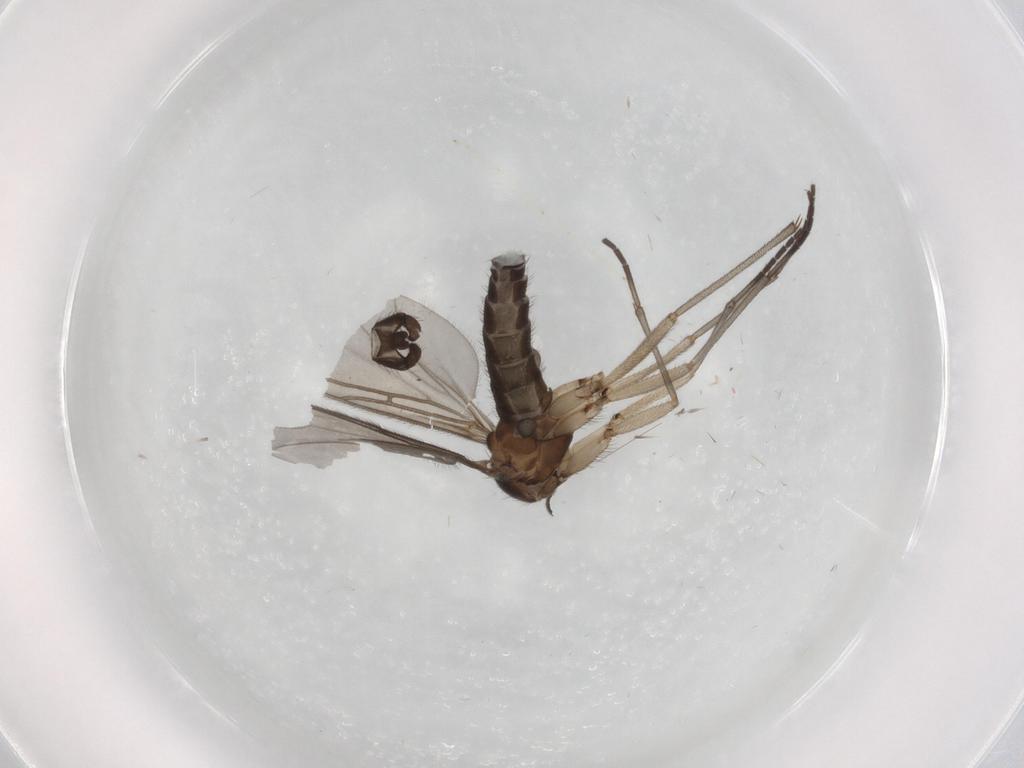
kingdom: Animalia
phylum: Arthropoda
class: Insecta
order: Diptera
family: Sciaridae
